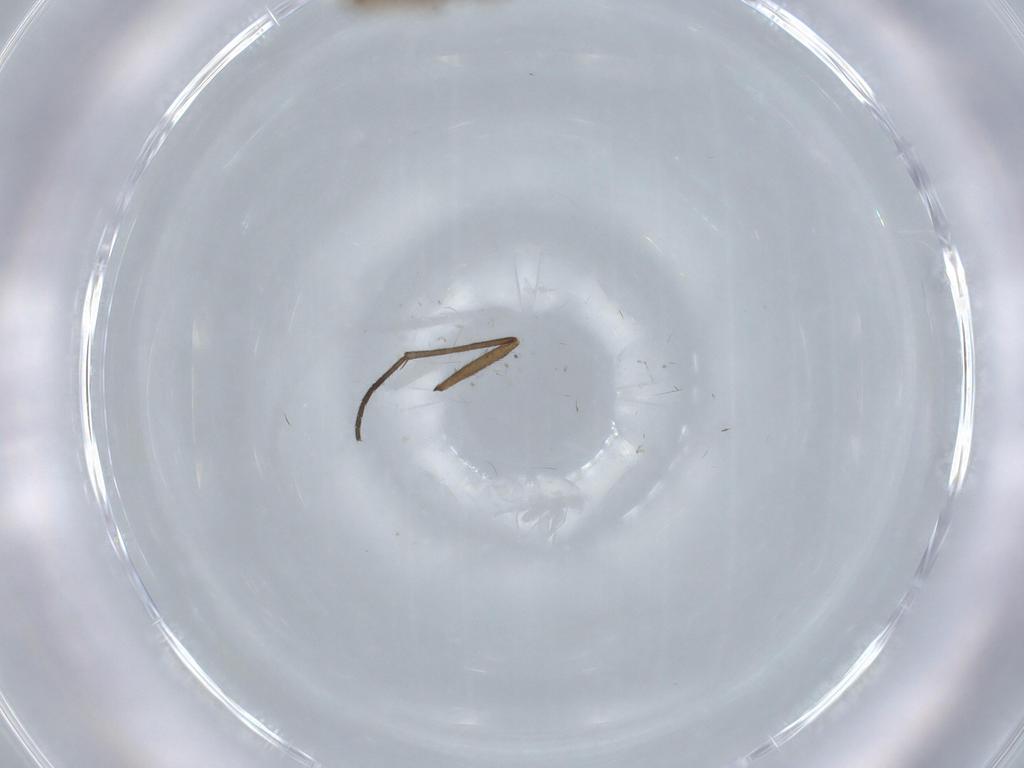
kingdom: Animalia
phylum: Arthropoda
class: Insecta
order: Diptera
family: Chironomidae
